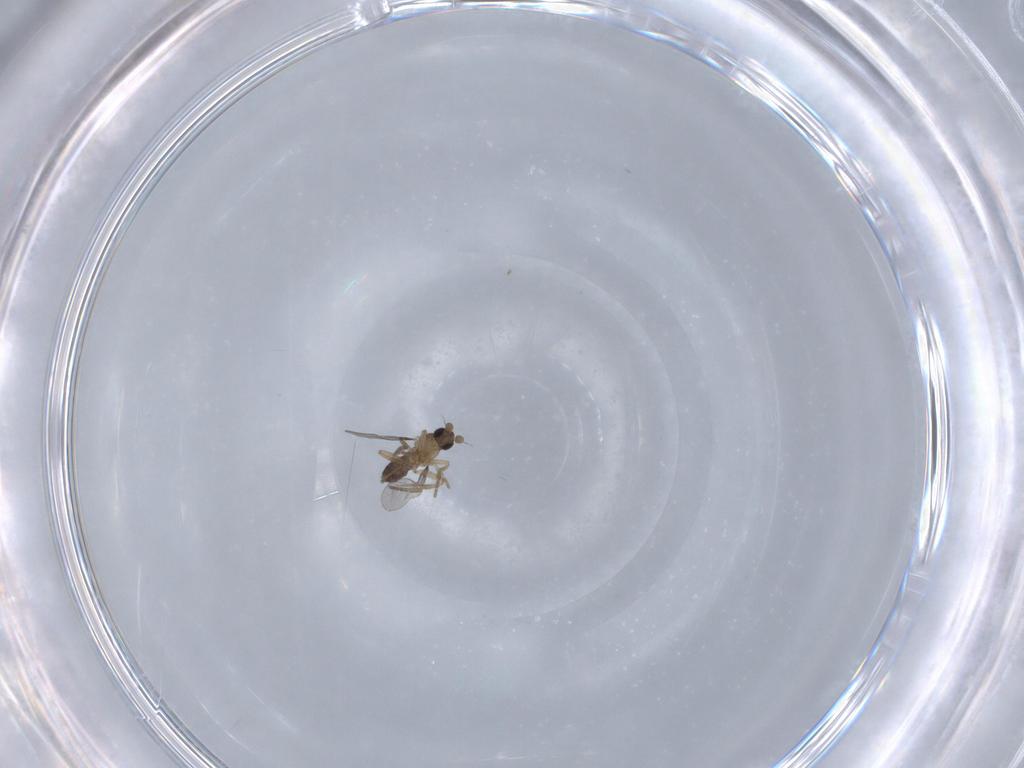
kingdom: Animalia
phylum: Arthropoda
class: Insecta
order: Diptera
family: Phoridae
